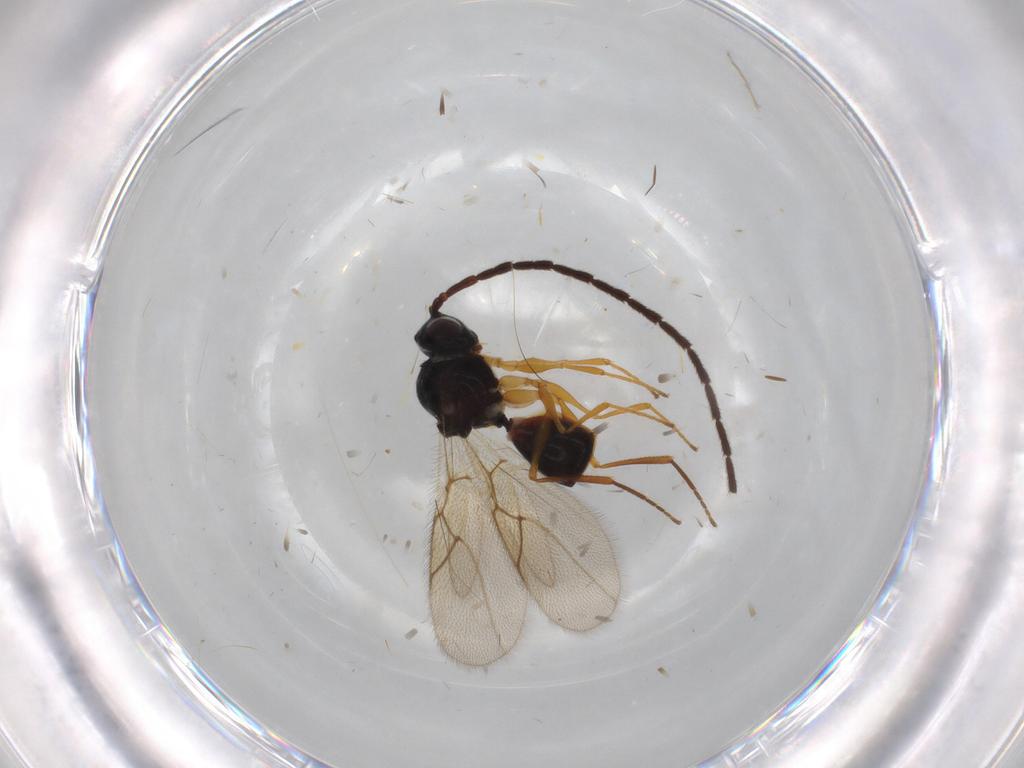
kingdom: Animalia
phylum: Arthropoda
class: Insecta
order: Hymenoptera
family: Figitidae
